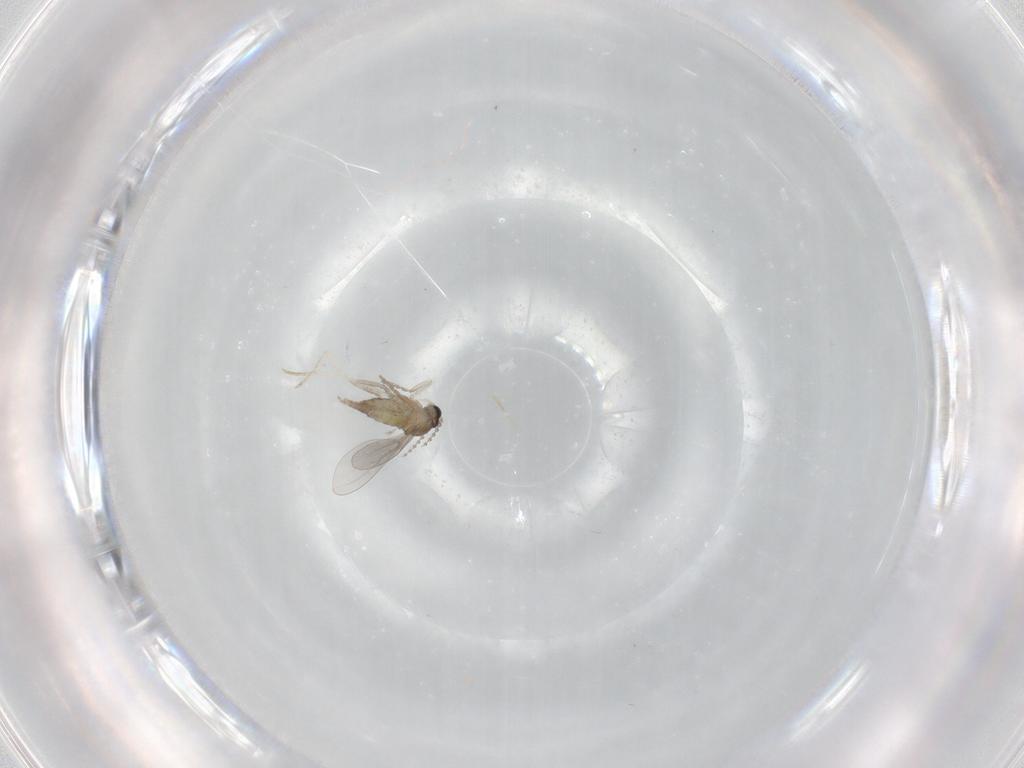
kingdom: Animalia
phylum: Arthropoda
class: Insecta
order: Diptera
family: Cecidomyiidae
